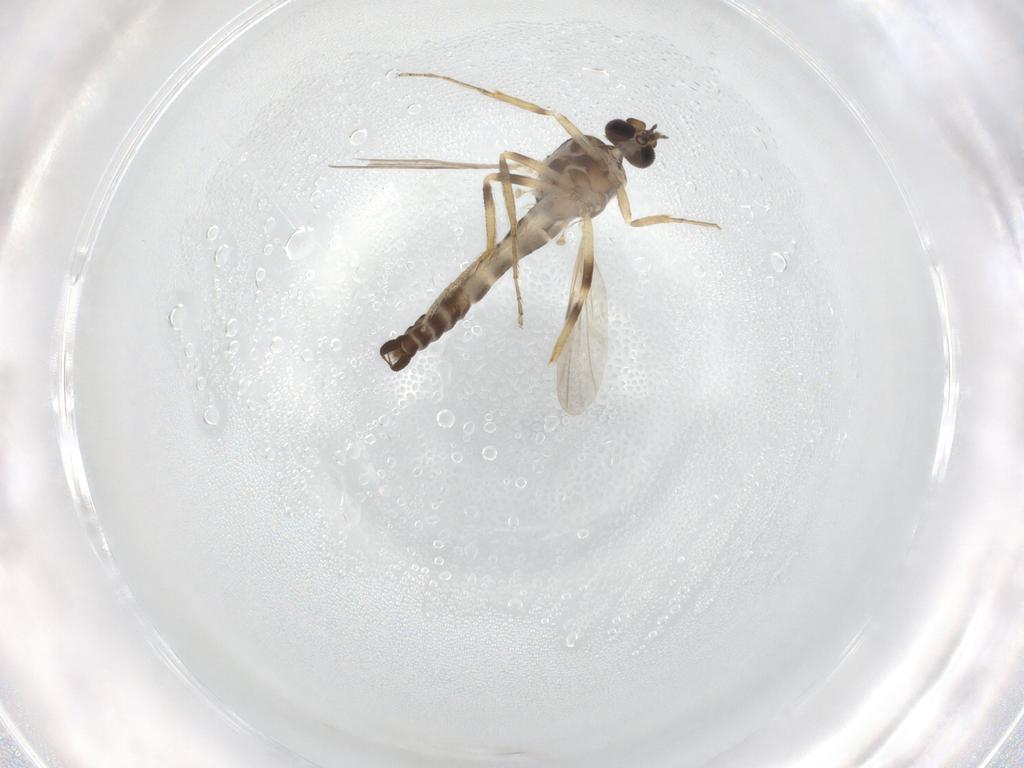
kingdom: Animalia
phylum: Arthropoda
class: Insecta
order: Diptera
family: Ceratopogonidae
